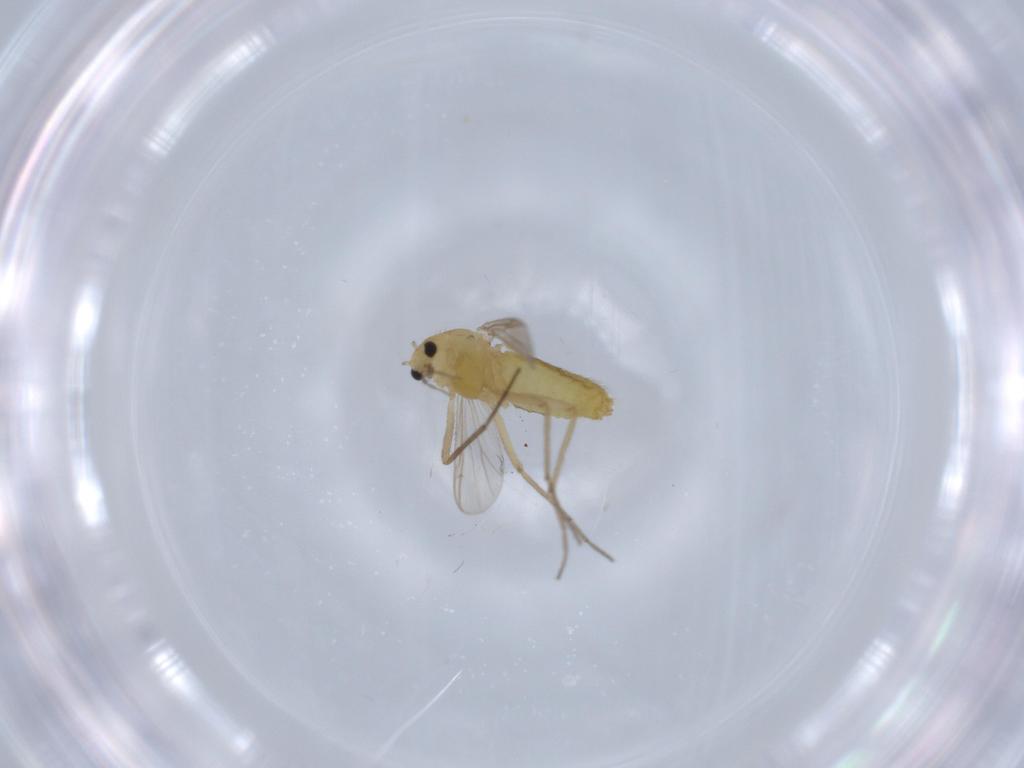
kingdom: Animalia
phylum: Arthropoda
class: Insecta
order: Diptera
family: Chironomidae
